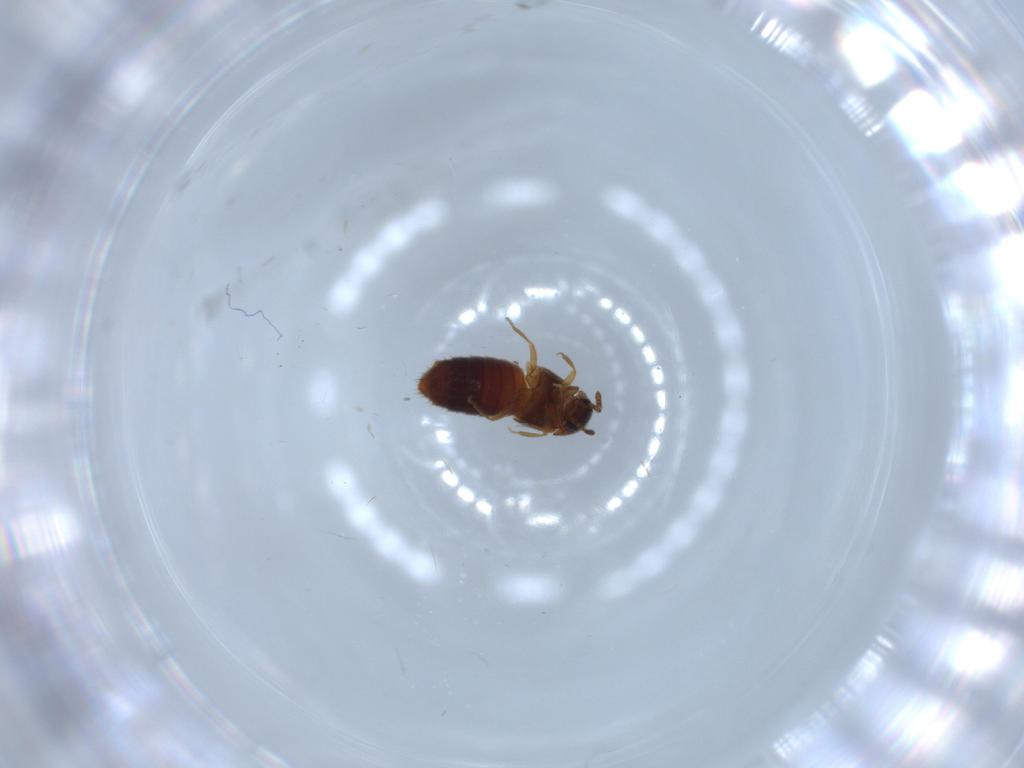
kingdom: Animalia
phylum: Arthropoda
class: Insecta
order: Coleoptera
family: Staphylinidae
